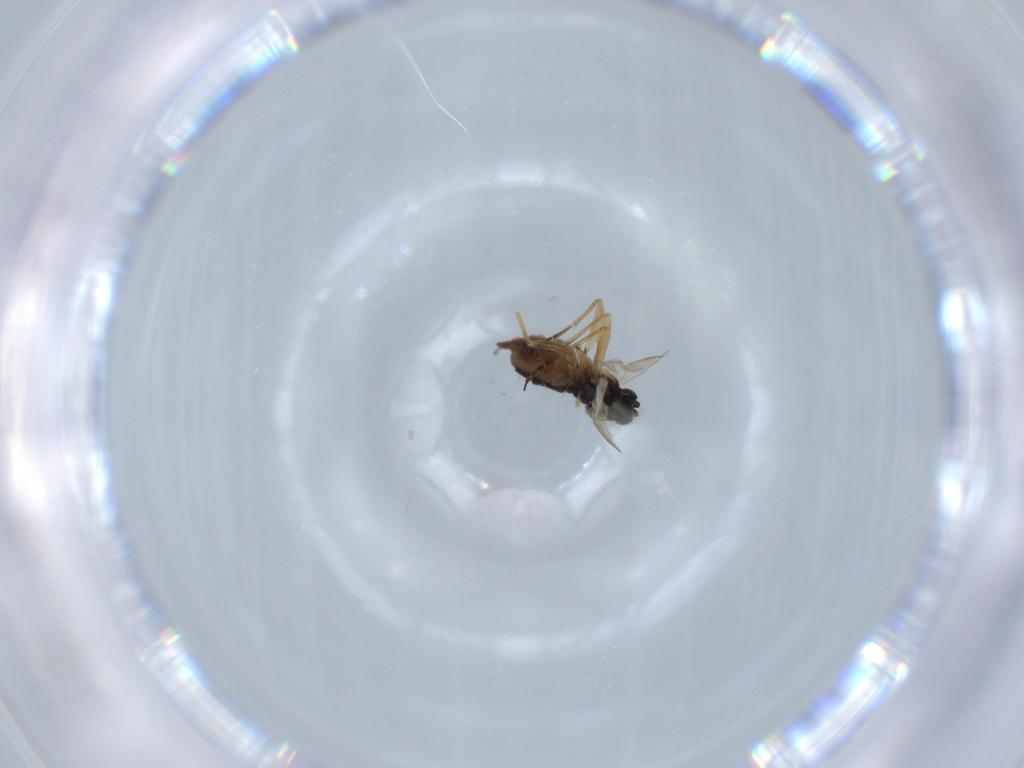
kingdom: Animalia
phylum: Arthropoda
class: Insecta
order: Diptera
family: Sciaridae
